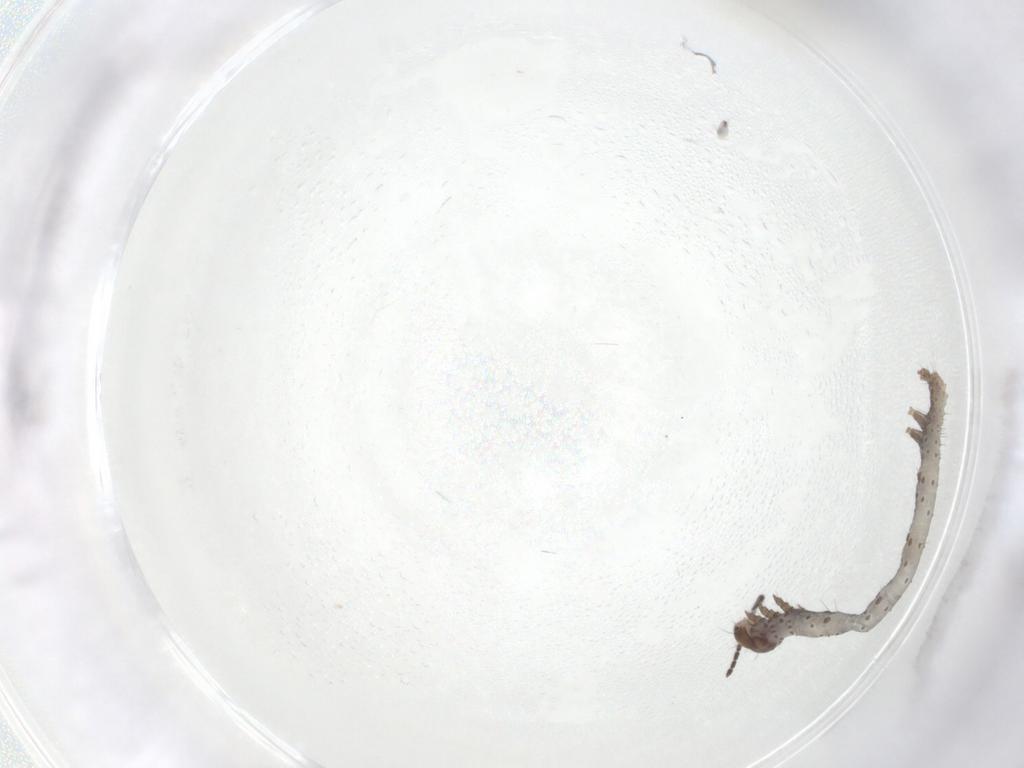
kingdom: Animalia
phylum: Arthropoda
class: Insecta
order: Lepidoptera
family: Erebidae
